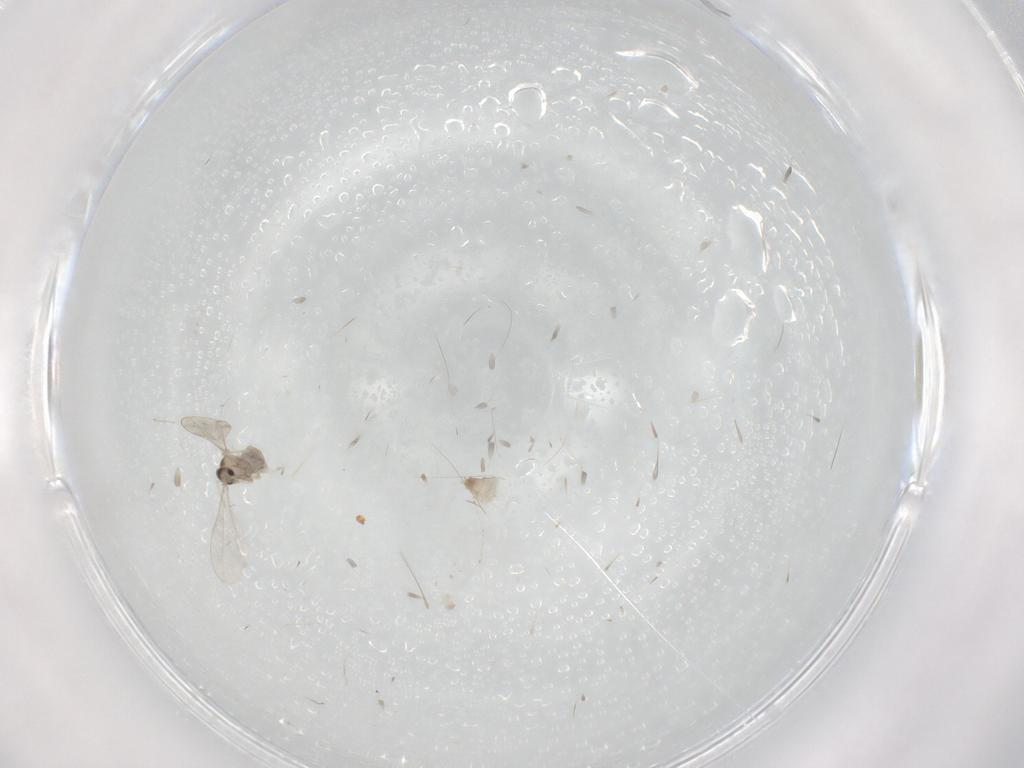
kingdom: Animalia
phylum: Arthropoda
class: Insecta
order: Diptera
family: Cecidomyiidae
